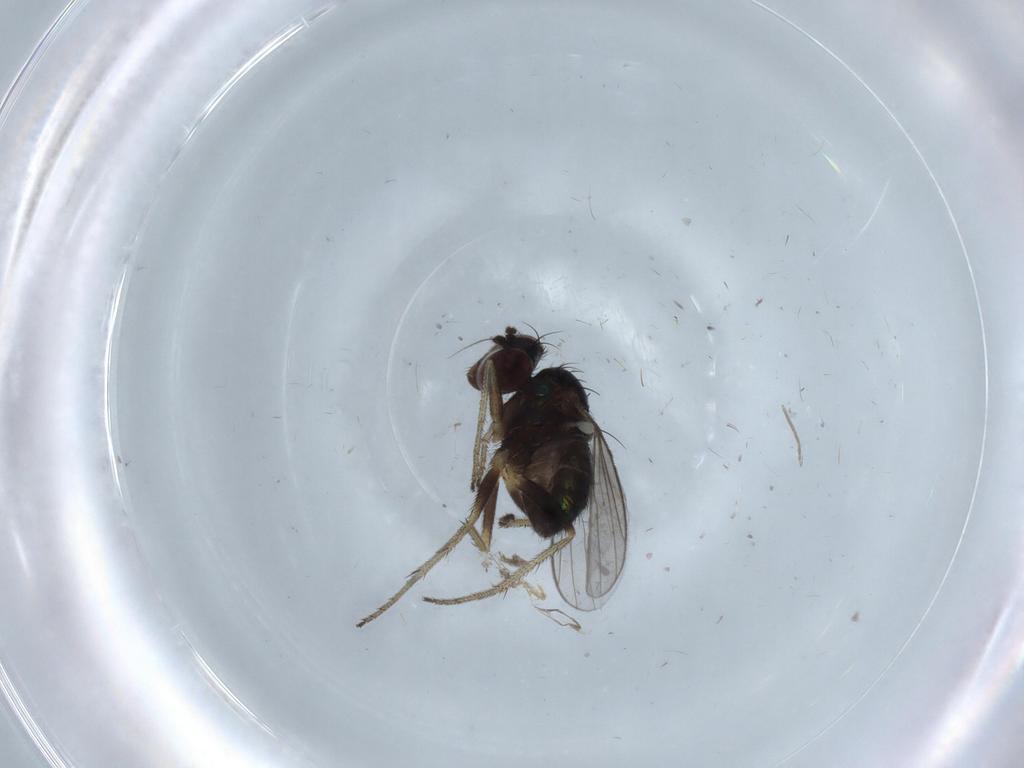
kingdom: Animalia
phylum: Arthropoda
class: Insecta
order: Diptera
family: Dolichopodidae
